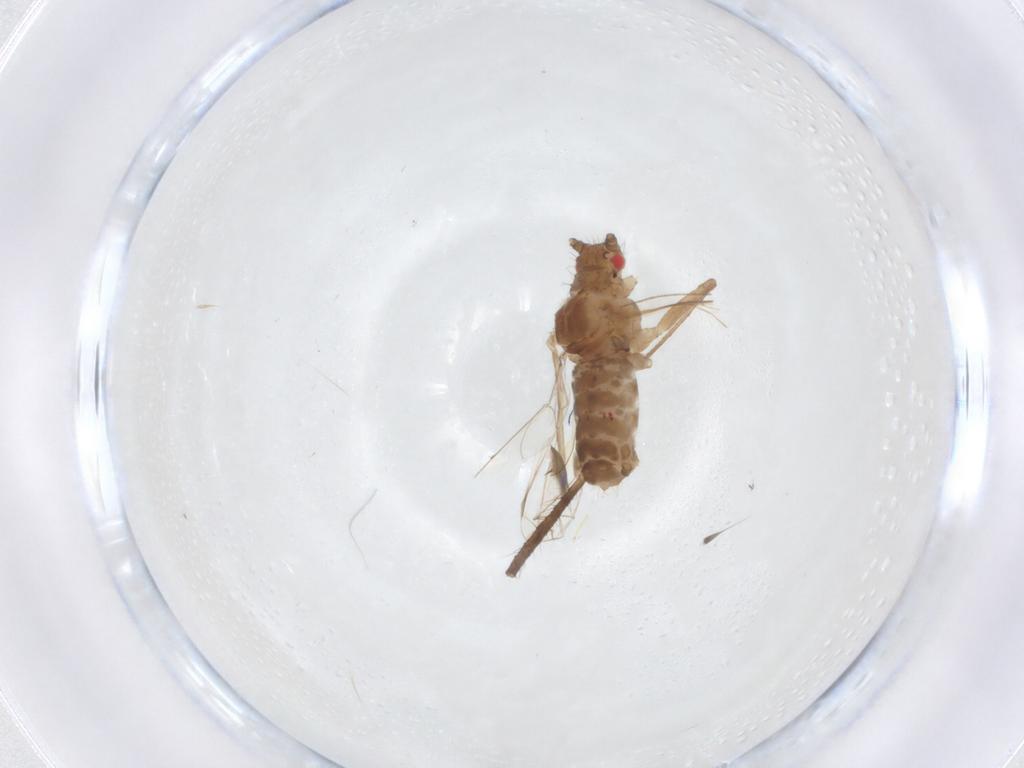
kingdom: Animalia
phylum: Arthropoda
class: Insecta
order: Hemiptera
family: Aphididae
